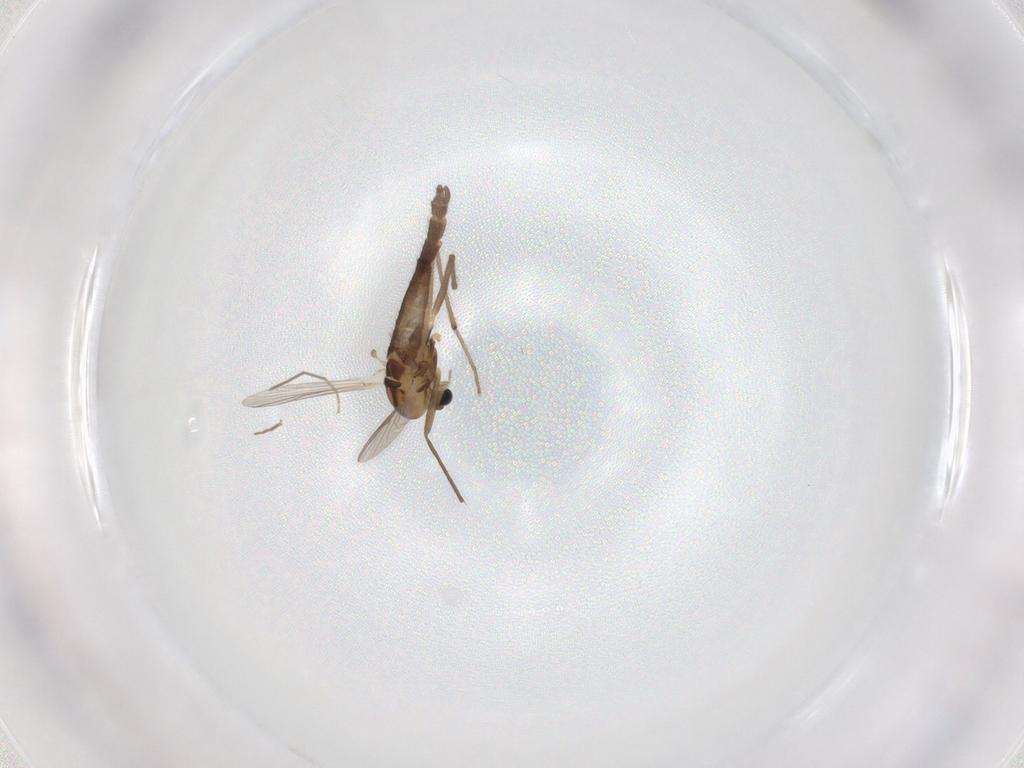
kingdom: Animalia
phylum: Arthropoda
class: Insecta
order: Diptera
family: Chironomidae
